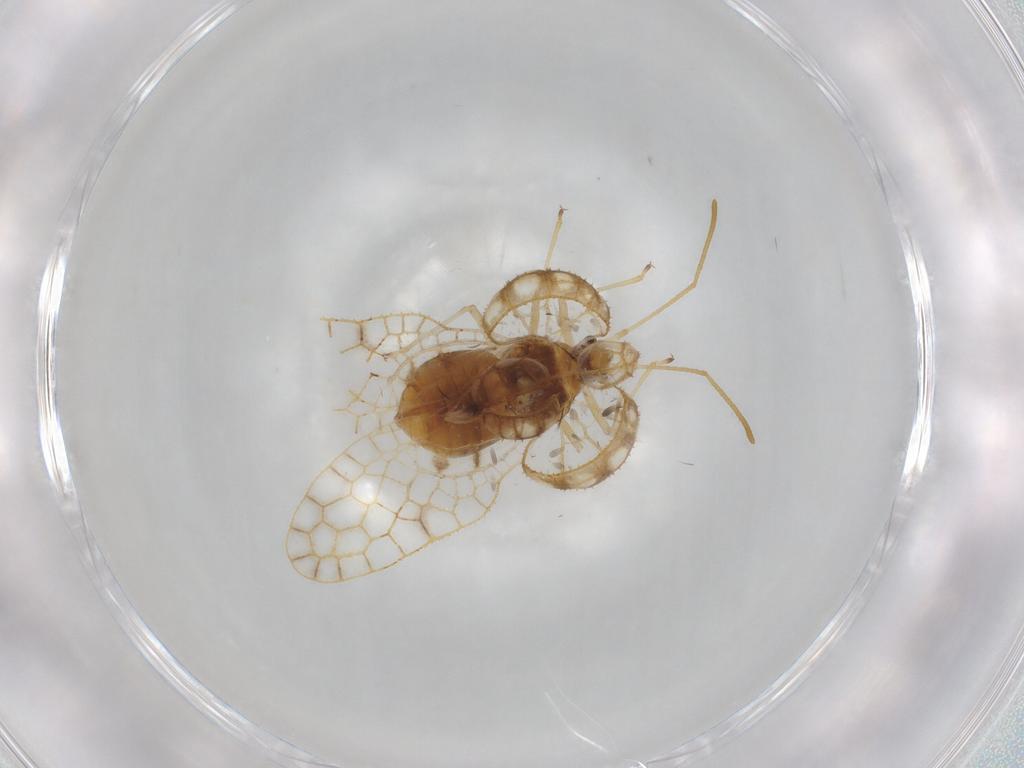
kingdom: Animalia
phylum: Arthropoda
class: Insecta
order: Hemiptera
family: Tingidae
